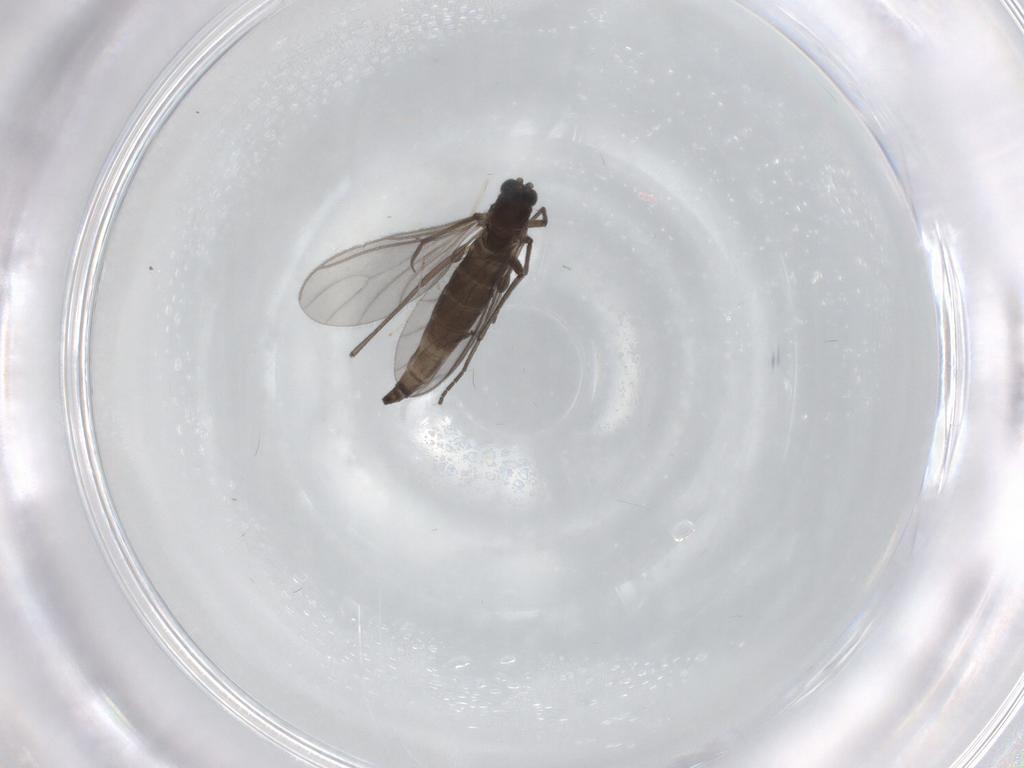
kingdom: Animalia
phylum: Arthropoda
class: Insecta
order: Diptera
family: Cecidomyiidae
